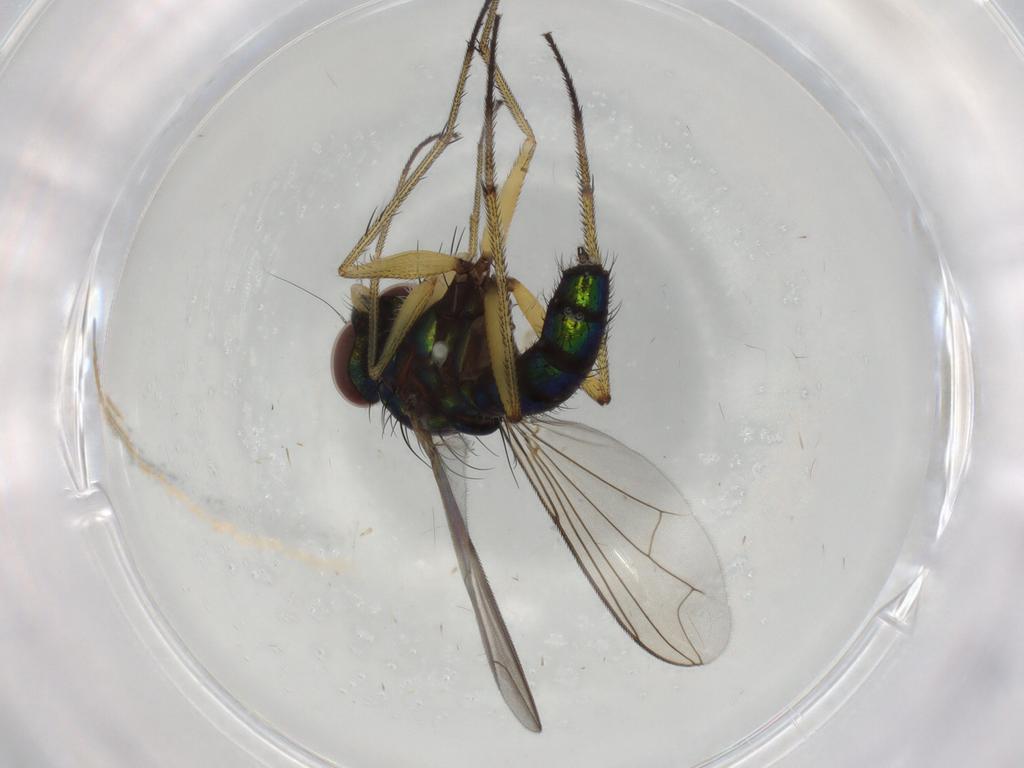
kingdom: Animalia
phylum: Arthropoda
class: Insecta
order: Diptera
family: Dolichopodidae
